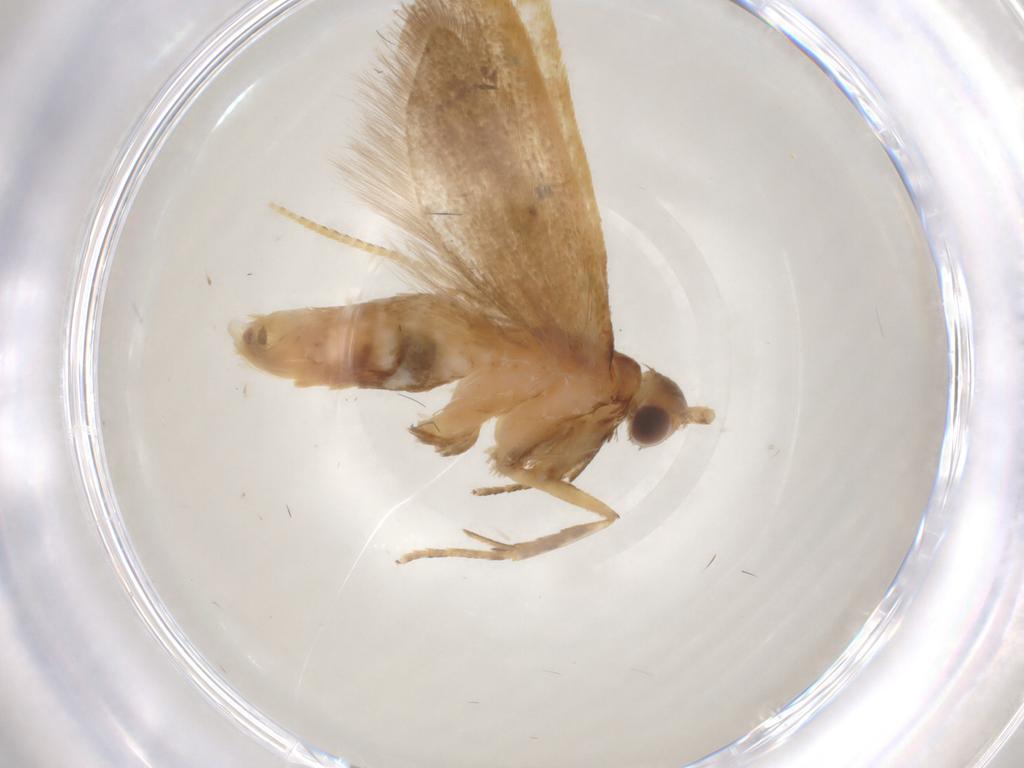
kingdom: Animalia
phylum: Arthropoda
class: Insecta
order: Lepidoptera
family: Lecithoceridae
